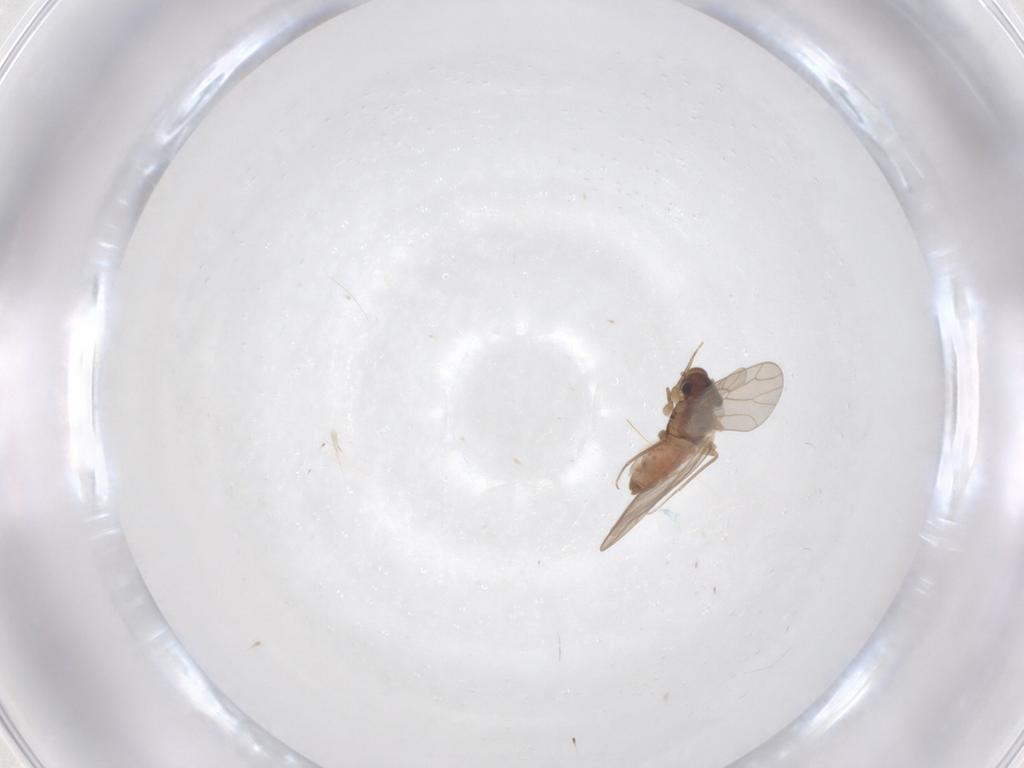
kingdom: Animalia
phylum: Arthropoda
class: Insecta
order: Psocodea
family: Lepidopsocidae
